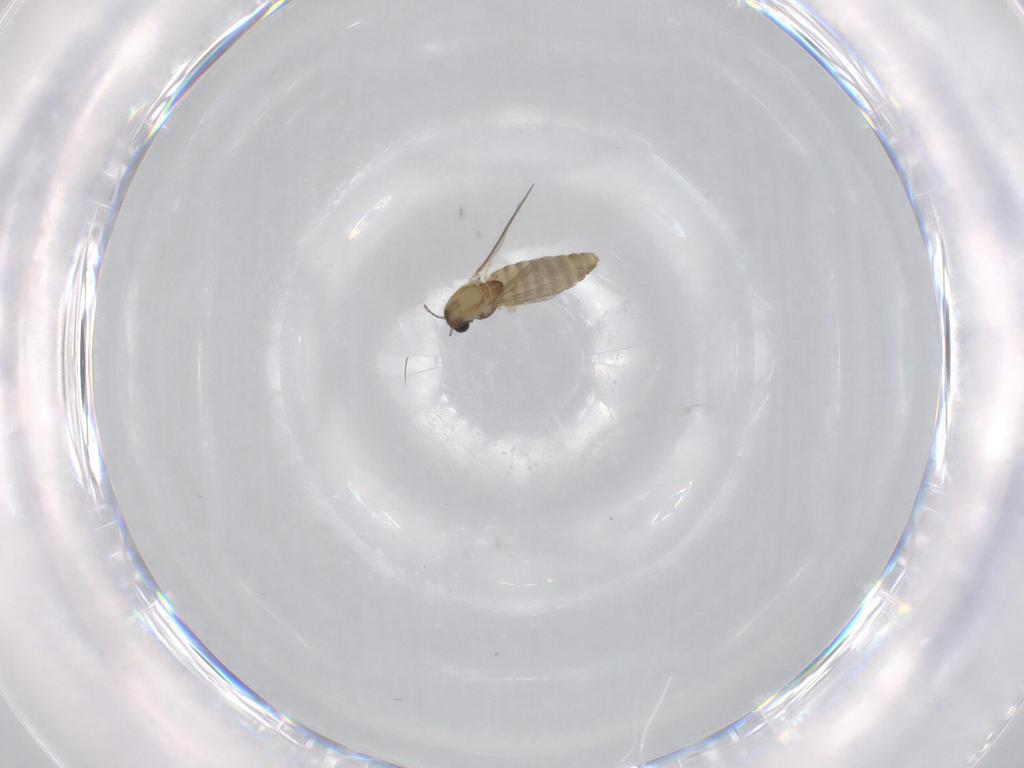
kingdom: Animalia
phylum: Arthropoda
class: Insecta
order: Diptera
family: Chironomidae
